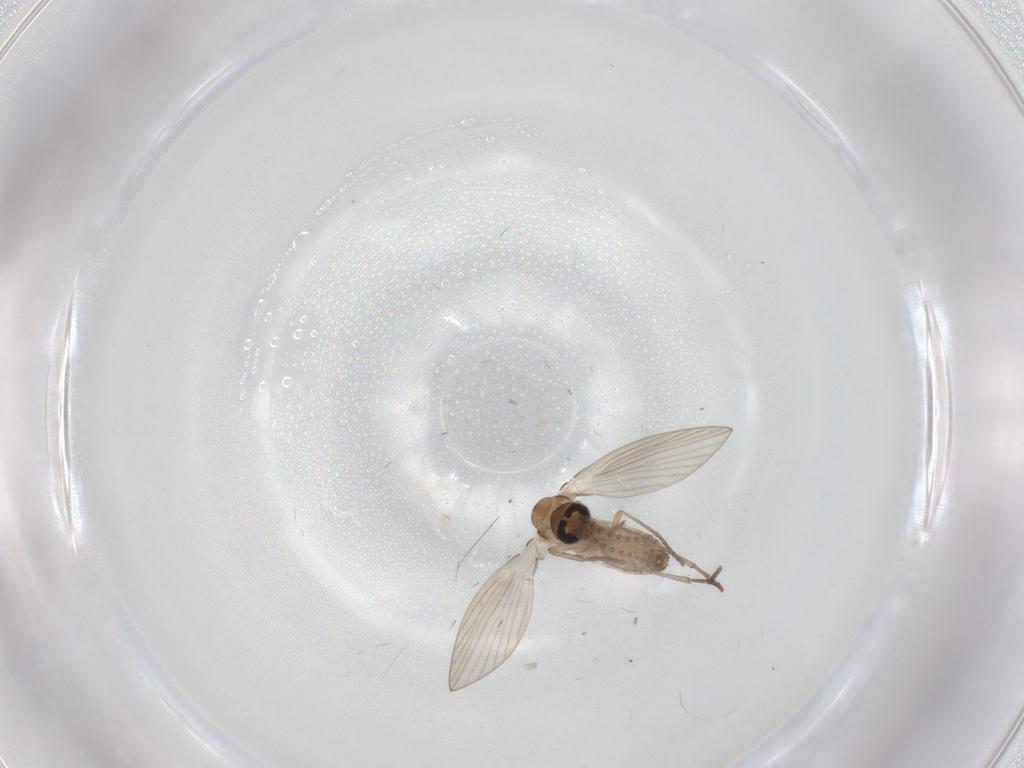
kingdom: Animalia
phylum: Arthropoda
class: Insecta
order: Diptera
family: Psychodidae
